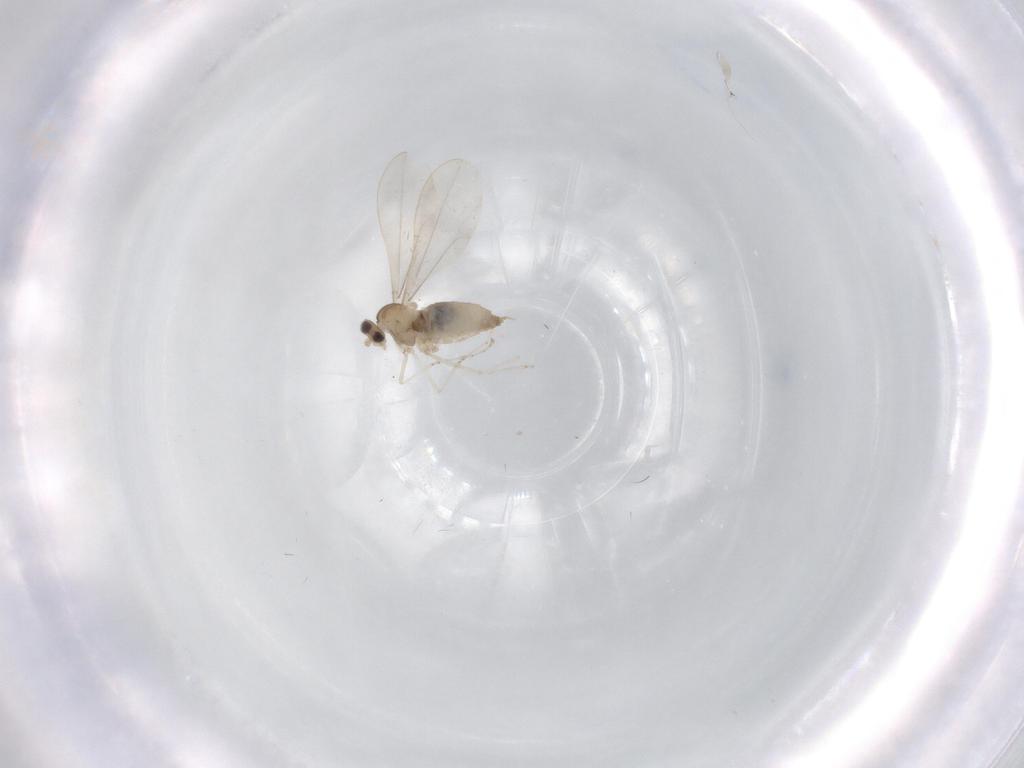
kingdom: Animalia
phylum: Arthropoda
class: Insecta
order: Diptera
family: Cecidomyiidae
